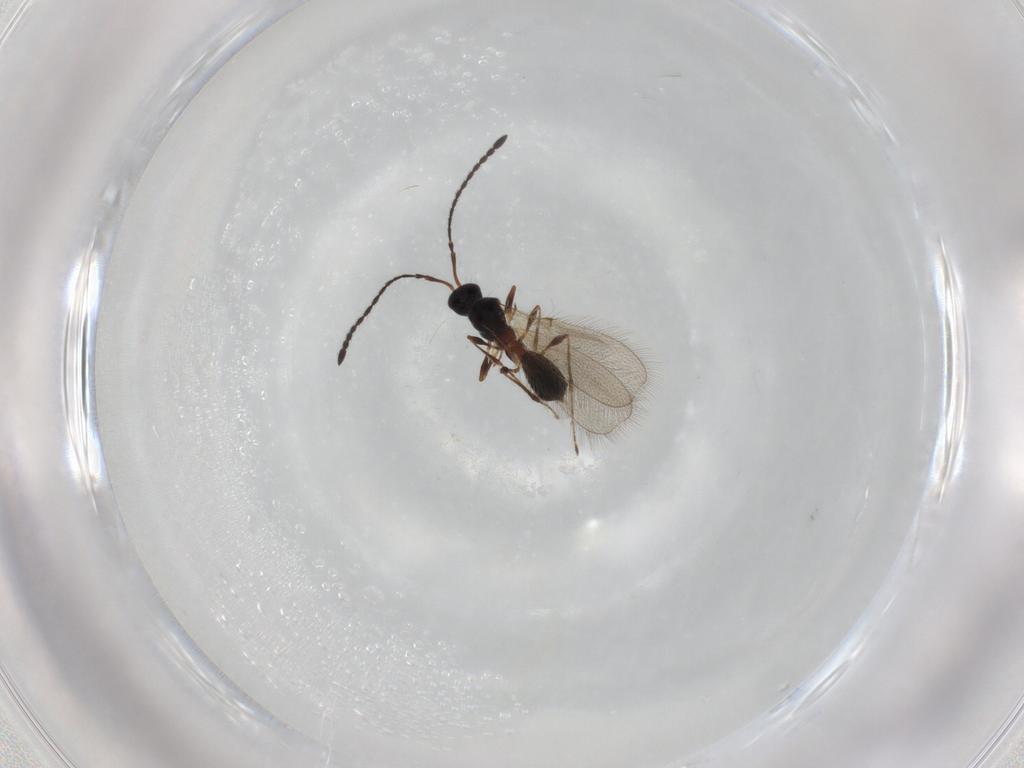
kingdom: Animalia
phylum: Arthropoda
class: Insecta
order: Hymenoptera
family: Diapriidae
